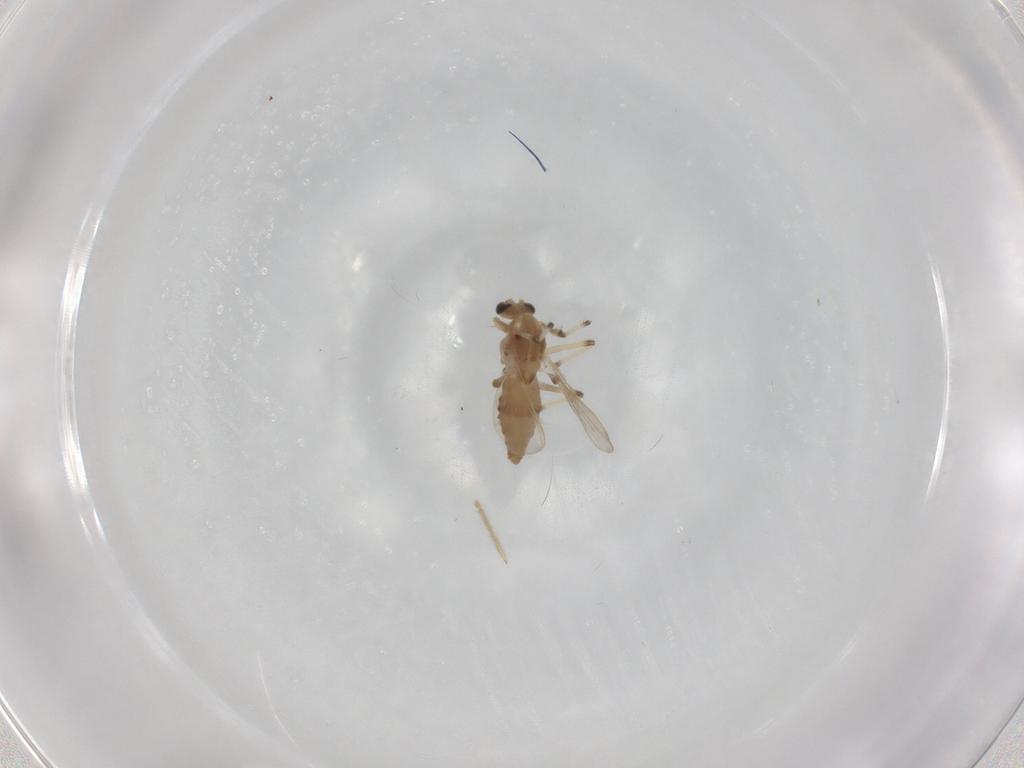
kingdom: Animalia
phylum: Arthropoda
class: Insecta
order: Diptera
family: Chironomidae
